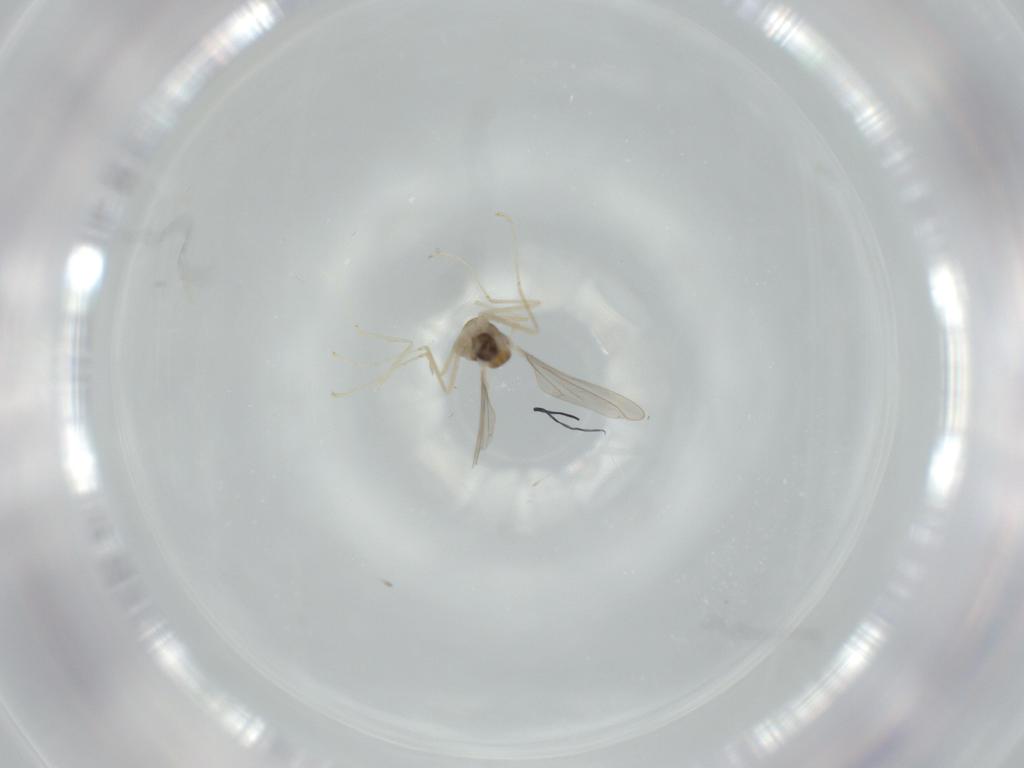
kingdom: Animalia
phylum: Arthropoda
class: Insecta
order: Diptera
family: Cecidomyiidae
